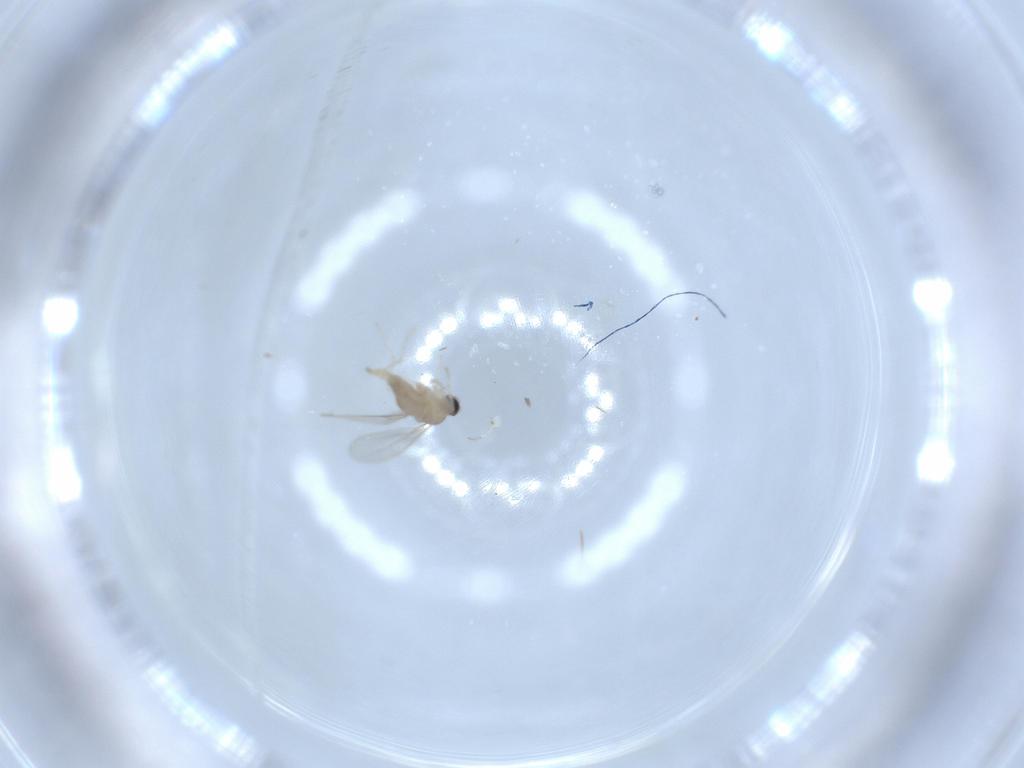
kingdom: Animalia
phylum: Arthropoda
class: Insecta
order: Diptera
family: Cecidomyiidae
